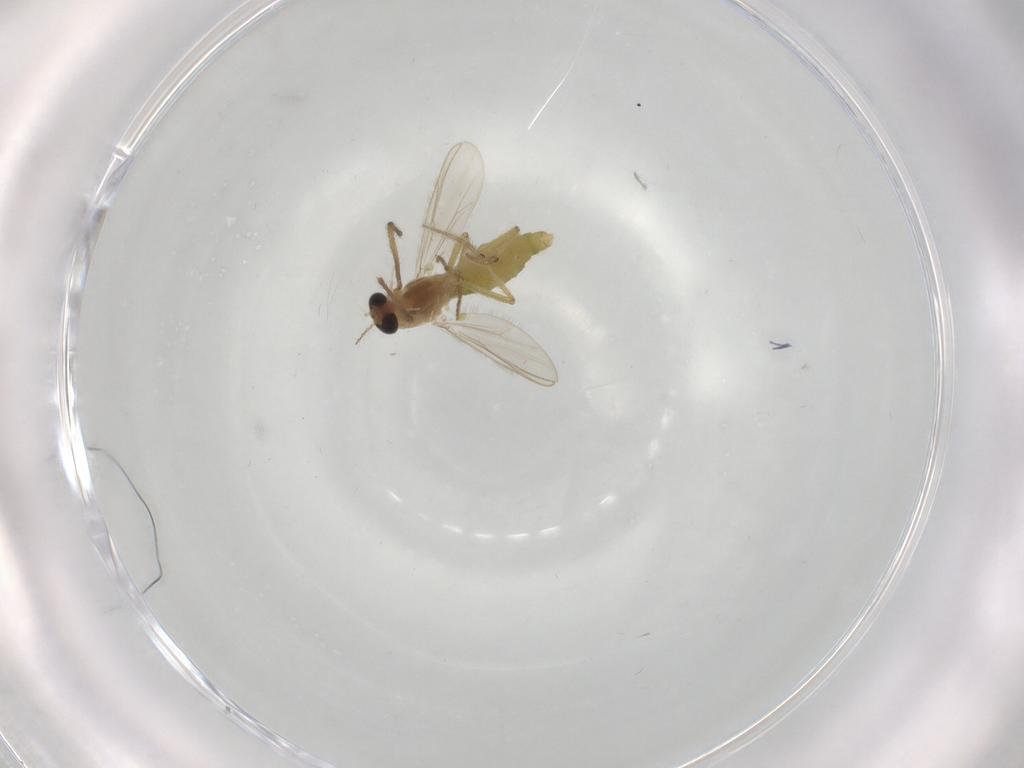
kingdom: Animalia
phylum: Arthropoda
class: Insecta
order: Diptera
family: Chironomidae
